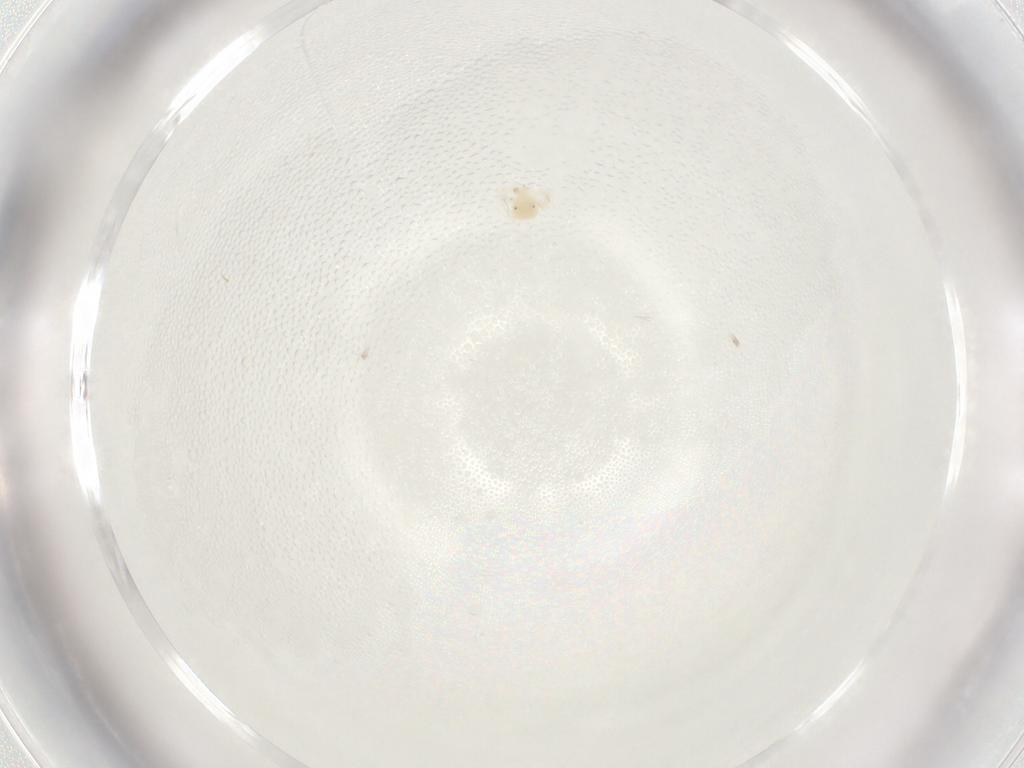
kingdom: Animalia
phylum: Arthropoda
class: Arachnida
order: Trombidiformes
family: Anystidae
